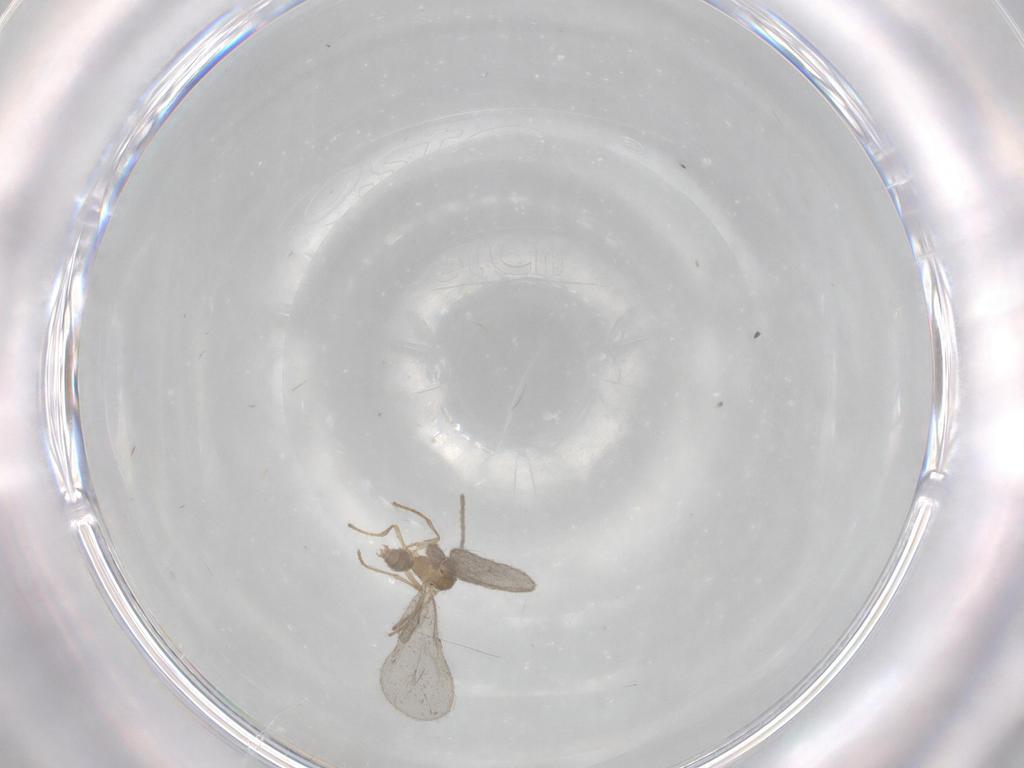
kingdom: Animalia
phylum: Arthropoda
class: Insecta
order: Hymenoptera
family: Formicidae
